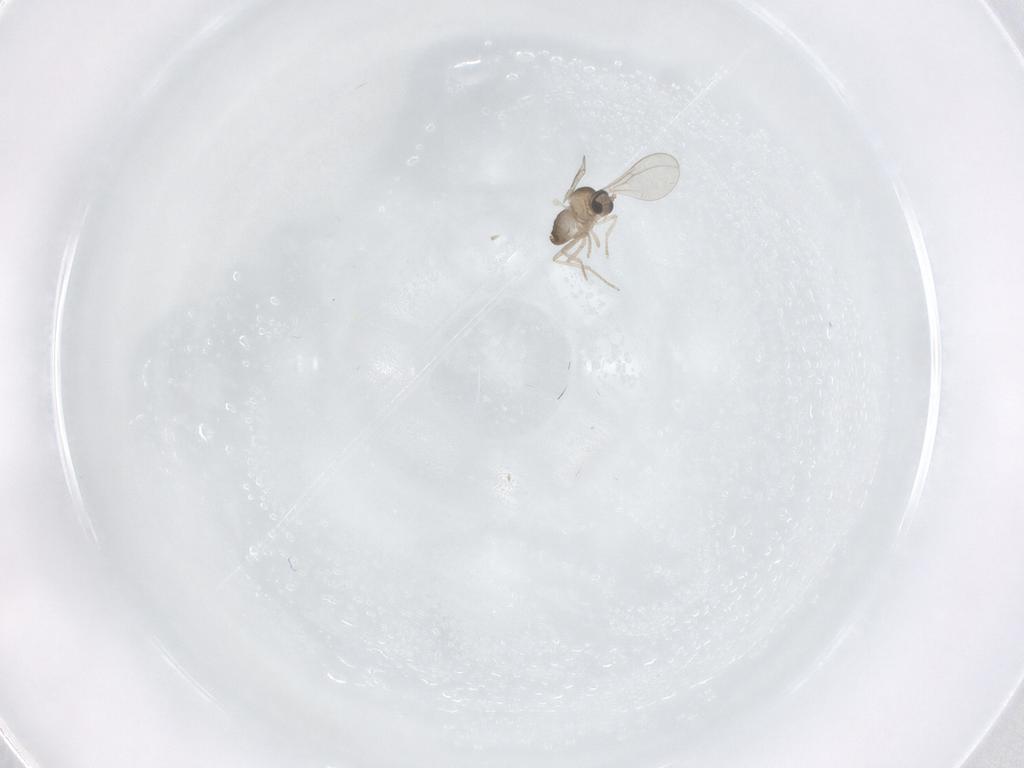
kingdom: Animalia
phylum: Arthropoda
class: Insecta
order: Diptera
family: Cecidomyiidae
